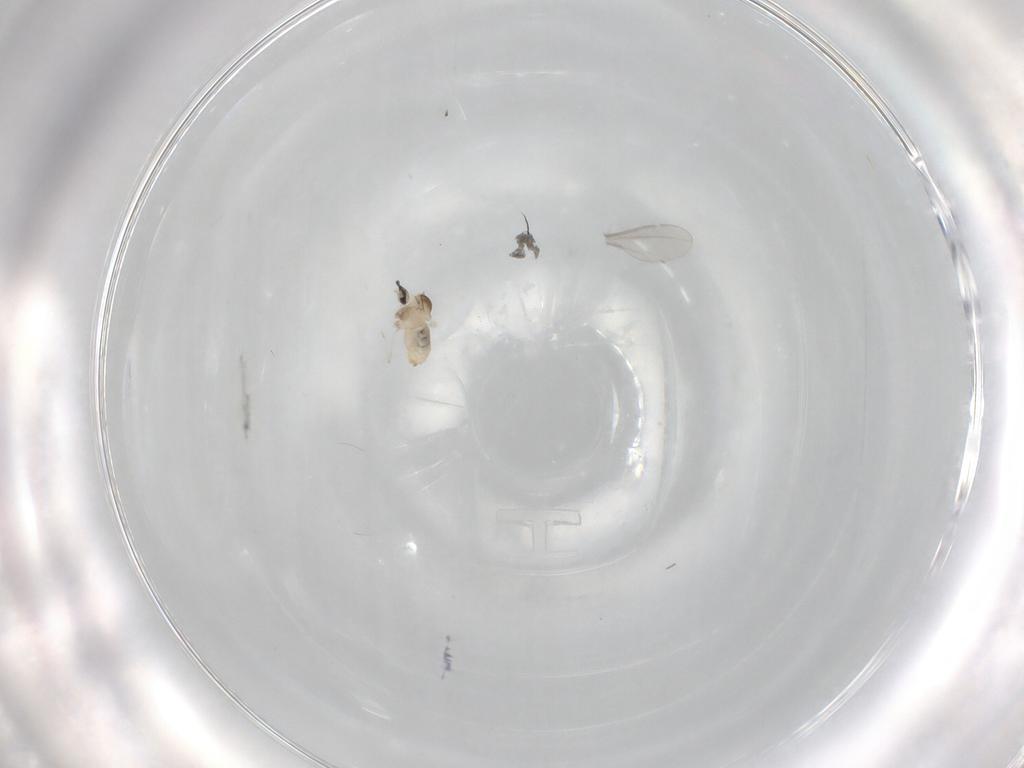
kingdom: Animalia
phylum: Arthropoda
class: Insecta
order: Diptera
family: Cecidomyiidae
